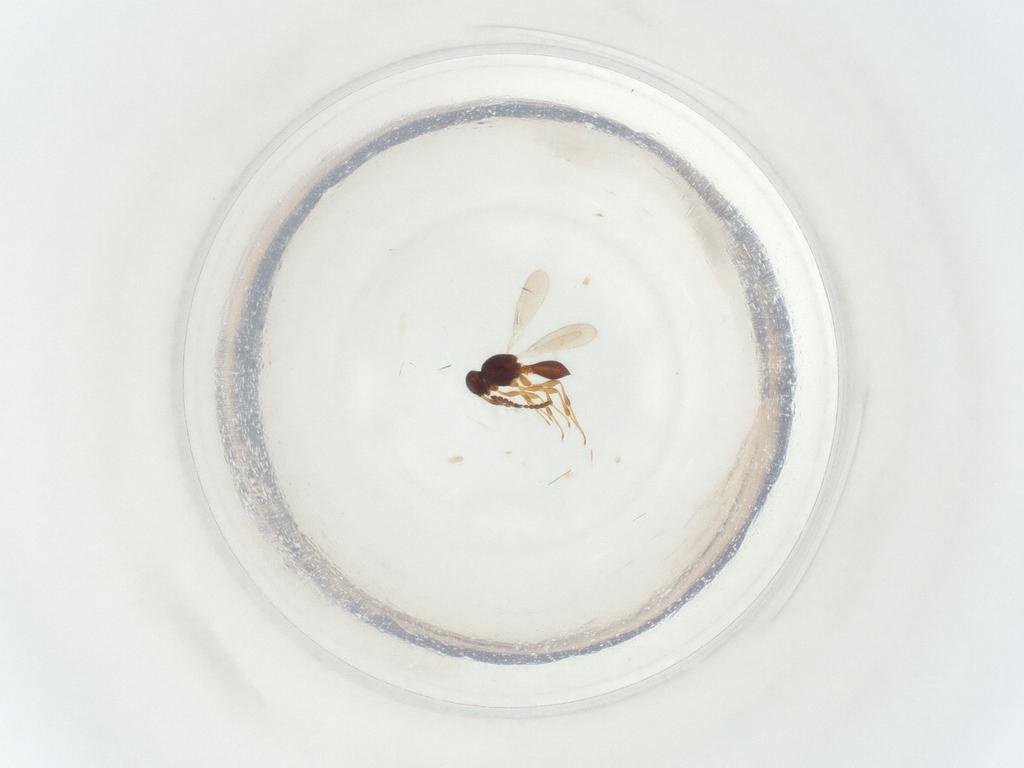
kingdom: Animalia
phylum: Arthropoda
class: Insecta
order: Hymenoptera
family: Platygastridae
